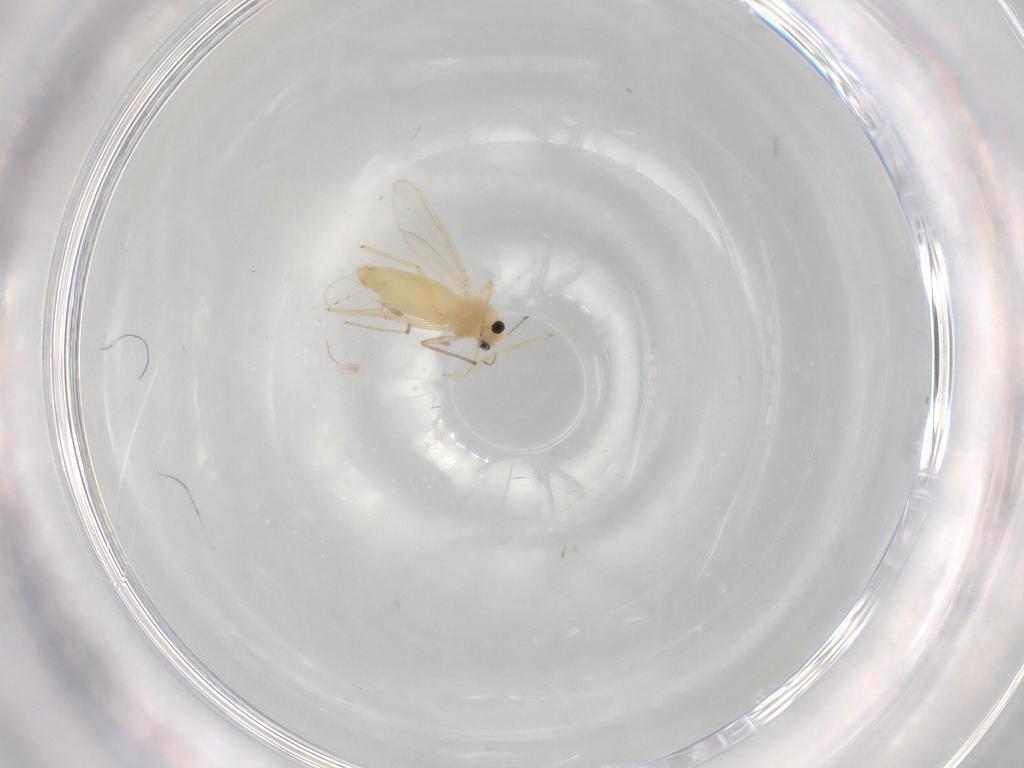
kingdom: Animalia
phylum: Arthropoda
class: Insecta
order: Diptera
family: Chironomidae
